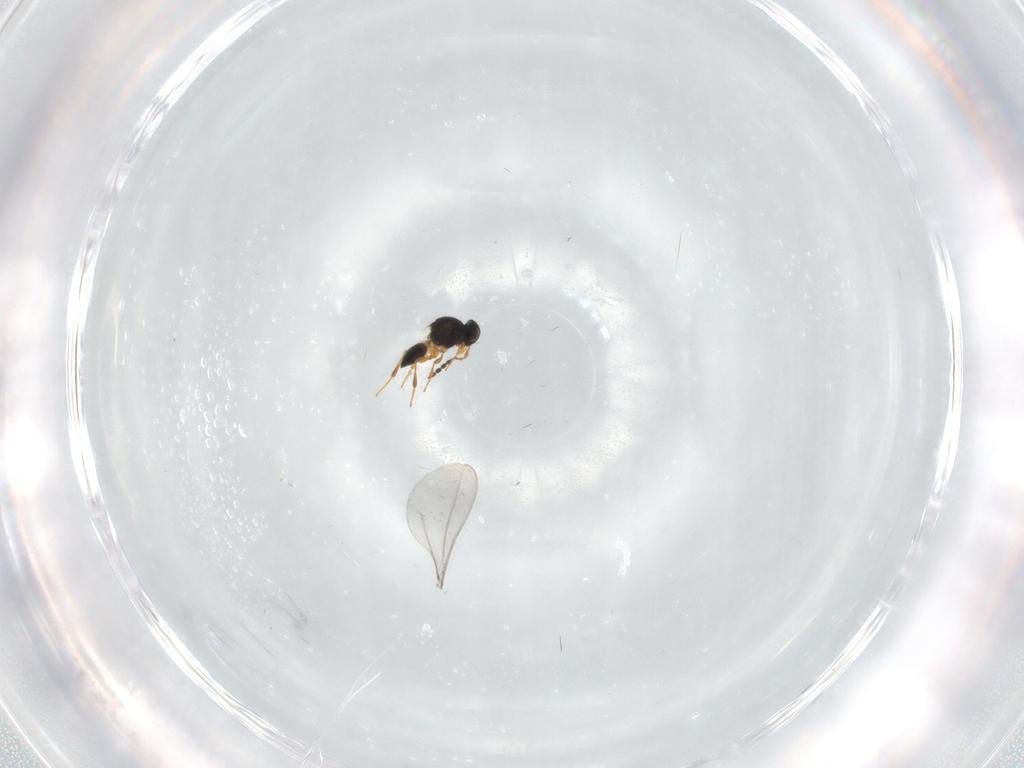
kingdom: Animalia
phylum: Arthropoda
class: Insecta
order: Hymenoptera
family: Platygastridae
